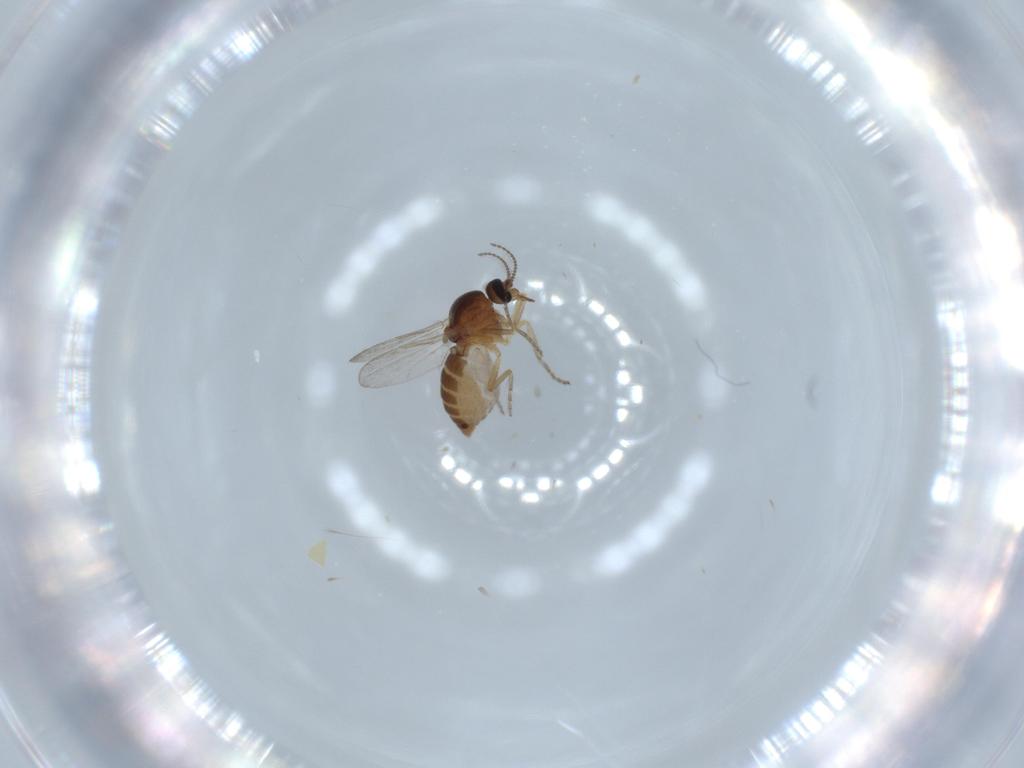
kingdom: Animalia
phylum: Arthropoda
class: Insecta
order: Diptera
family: Ceratopogonidae
